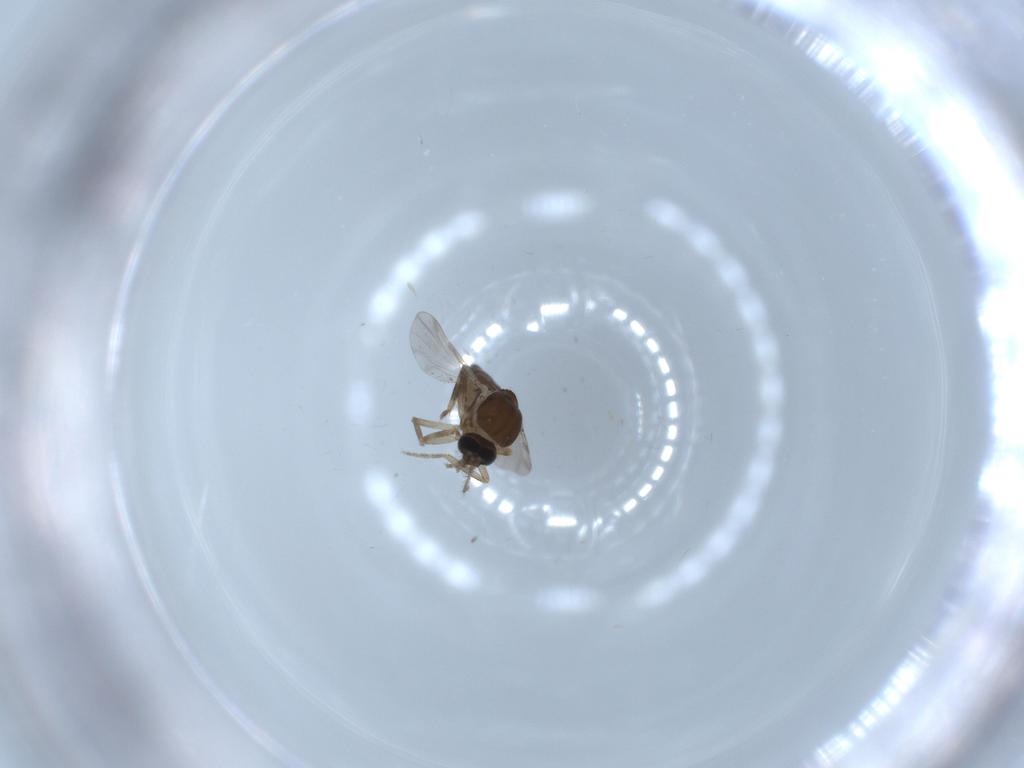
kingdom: Animalia
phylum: Arthropoda
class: Insecta
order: Diptera
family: Ceratopogonidae
